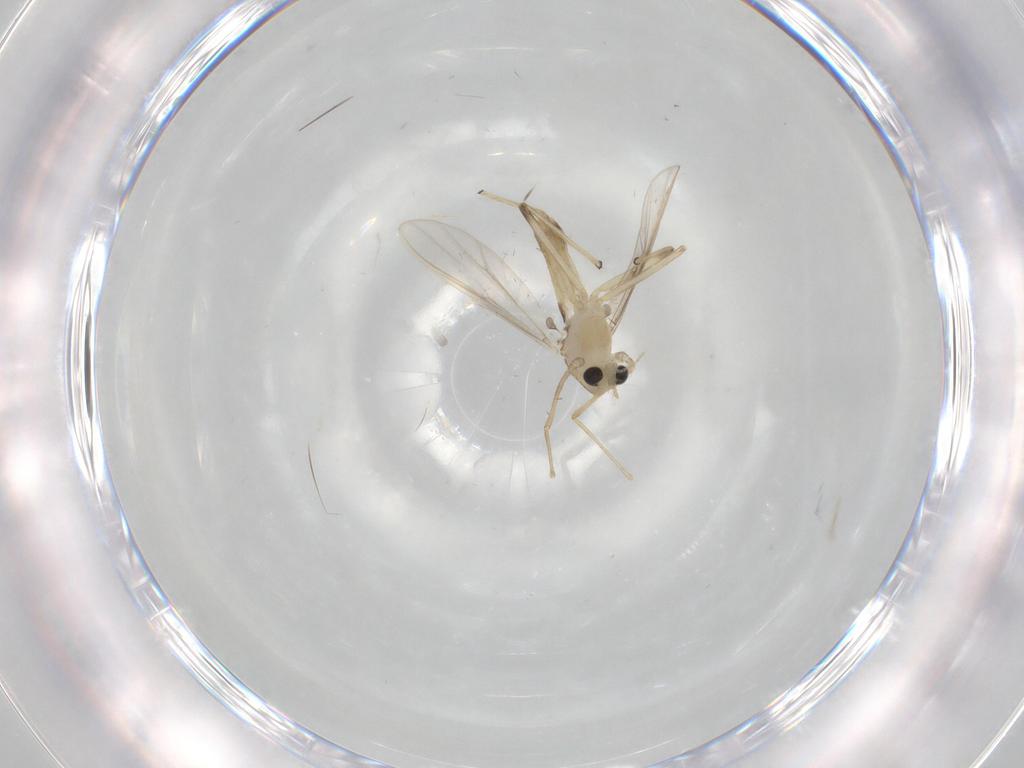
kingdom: Animalia
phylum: Arthropoda
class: Insecta
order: Diptera
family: Chironomidae
